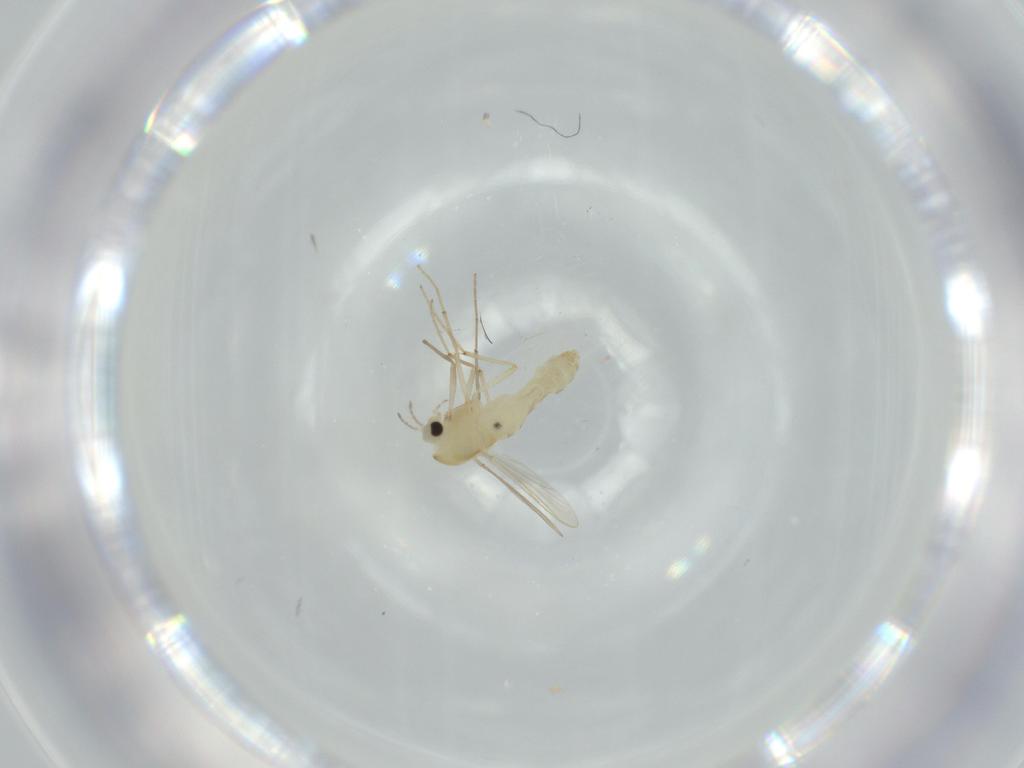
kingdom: Animalia
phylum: Arthropoda
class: Insecta
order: Diptera
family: Chironomidae
